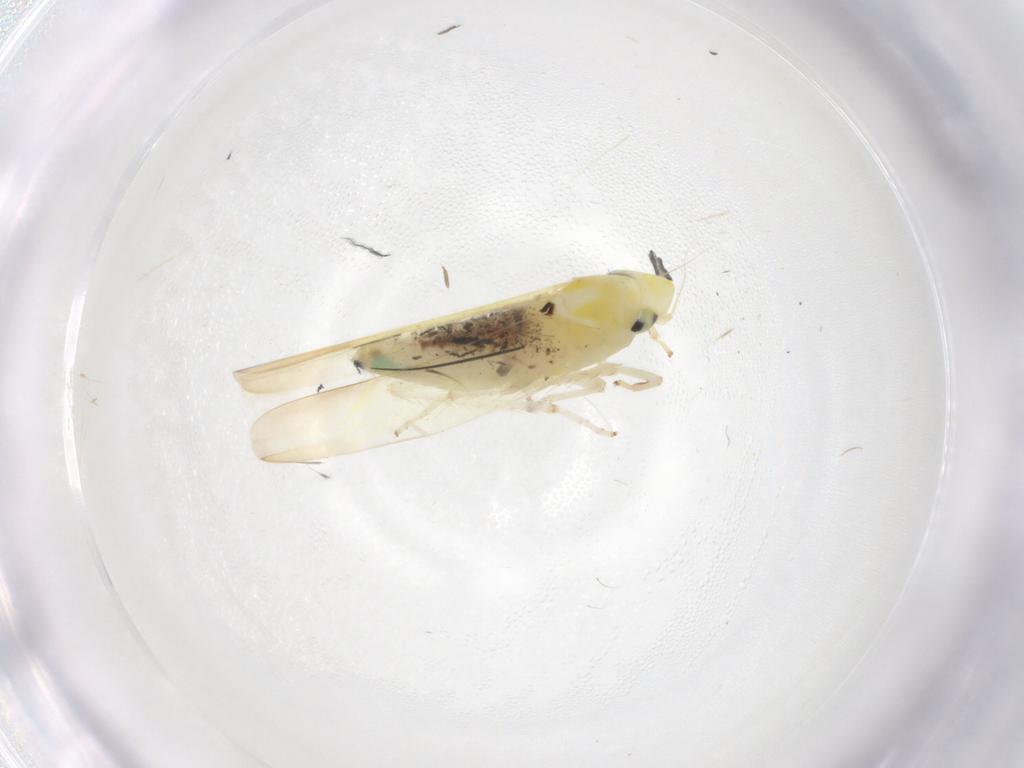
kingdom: Animalia
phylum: Arthropoda
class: Insecta
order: Hemiptera
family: Cicadellidae
